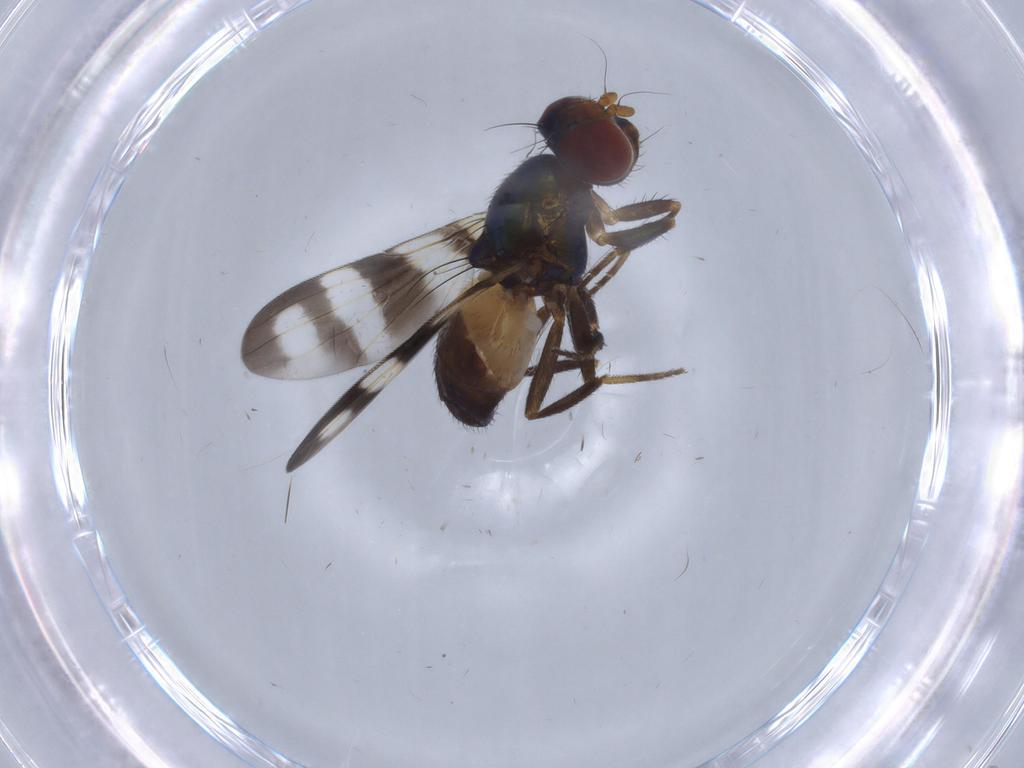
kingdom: Animalia
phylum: Arthropoda
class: Insecta
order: Diptera
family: Ulidiidae
